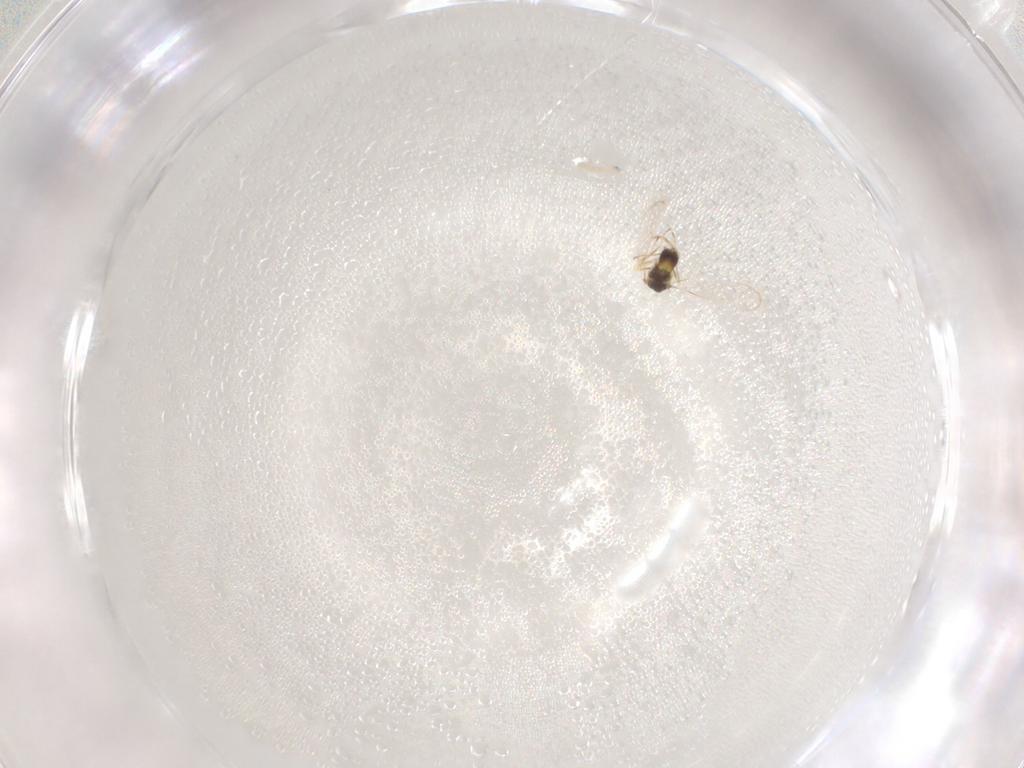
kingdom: Animalia
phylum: Arthropoda
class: Insecta
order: Hymenoptera
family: Eulophidae
